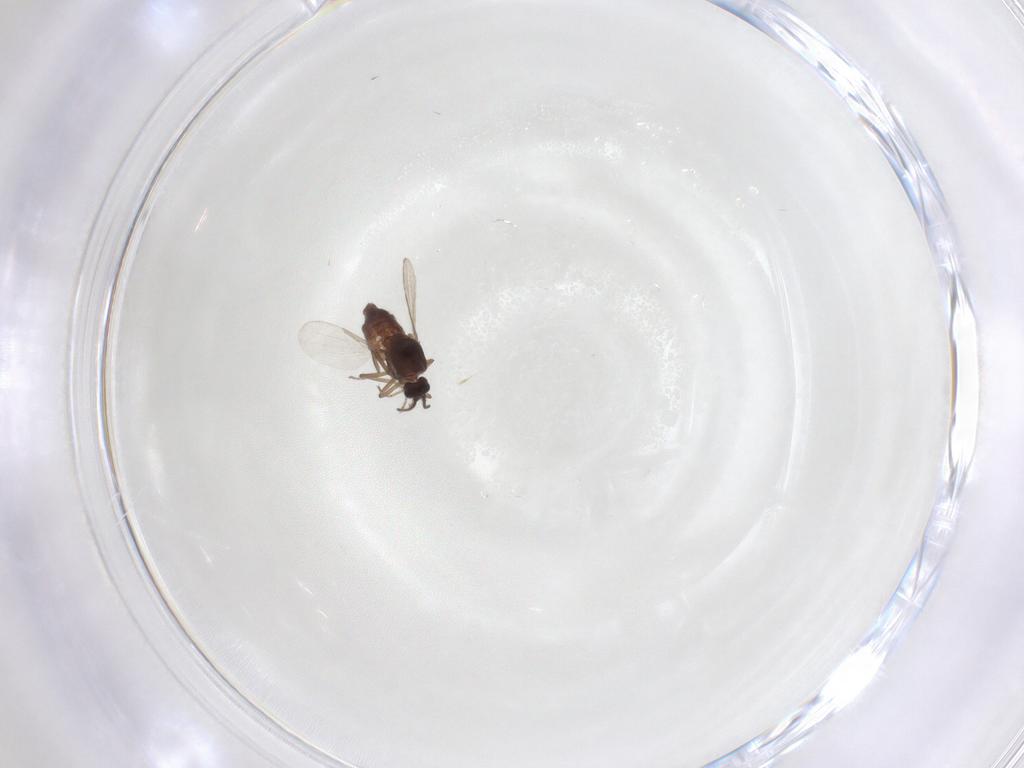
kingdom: Animalia
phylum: Arthropoda
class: Insecta
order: Diptera
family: Ceratopogonidae
